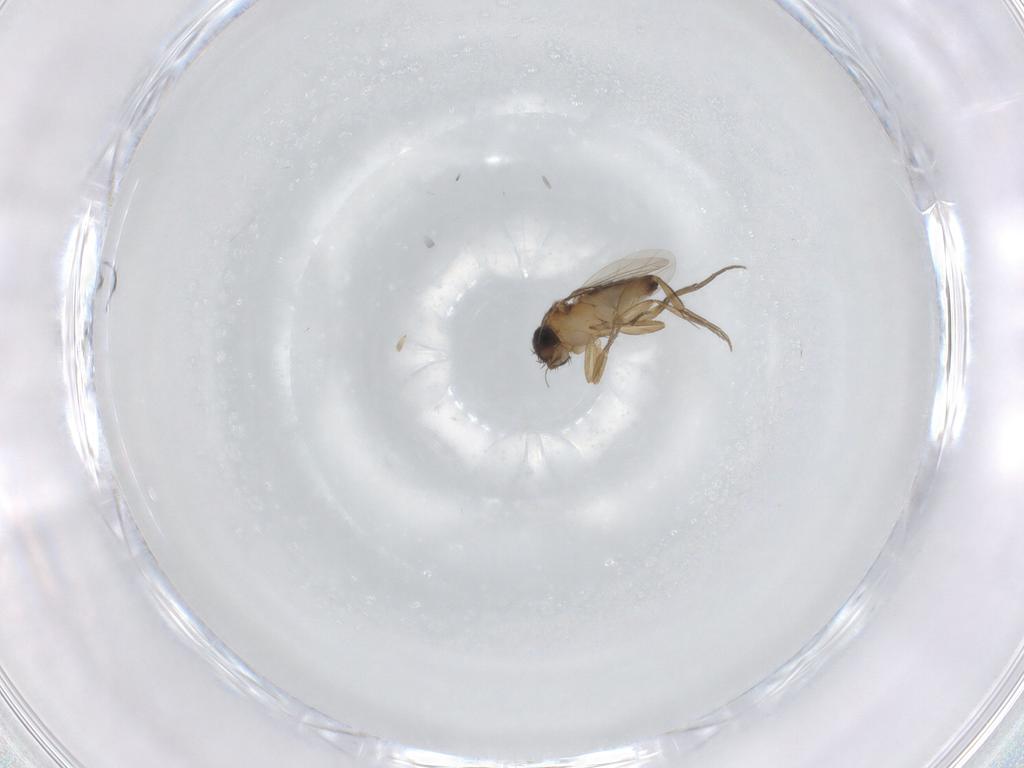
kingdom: Animalia
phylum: Arthropoda
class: Insecta
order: Diptera
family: Phoridae
